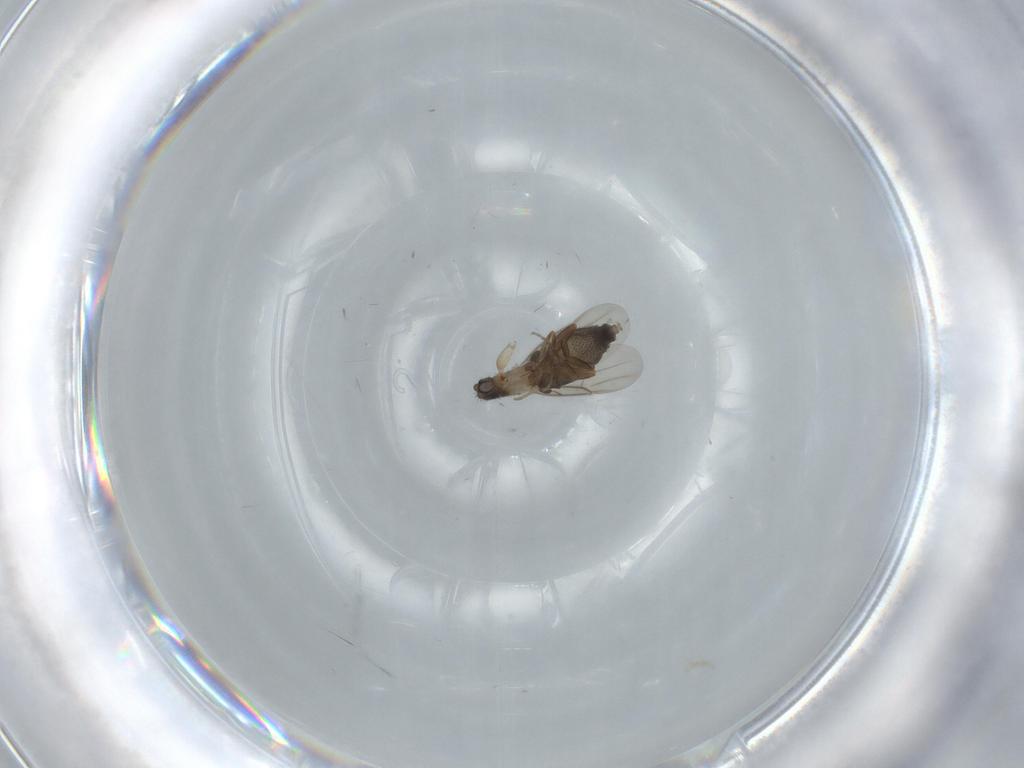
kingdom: Animalia
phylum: Arthropoda
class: Insecta
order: Diptera
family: Phoridae
